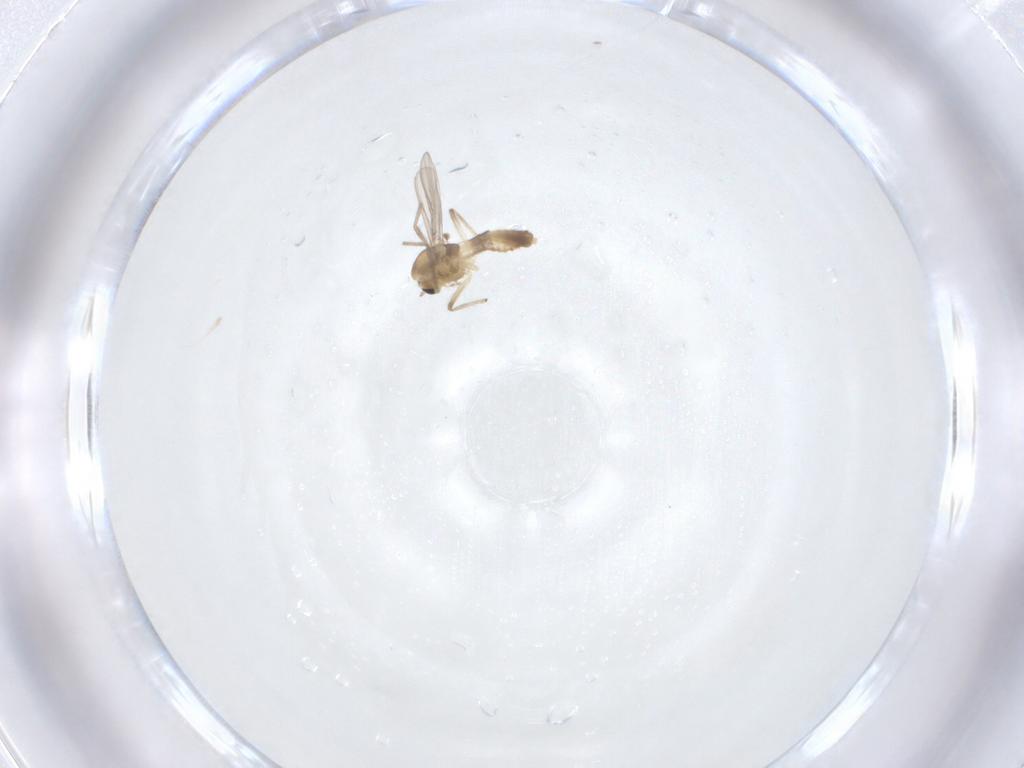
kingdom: Animalia
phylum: Arthropoda
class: Insecta
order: Diptera
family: Chironomidae
